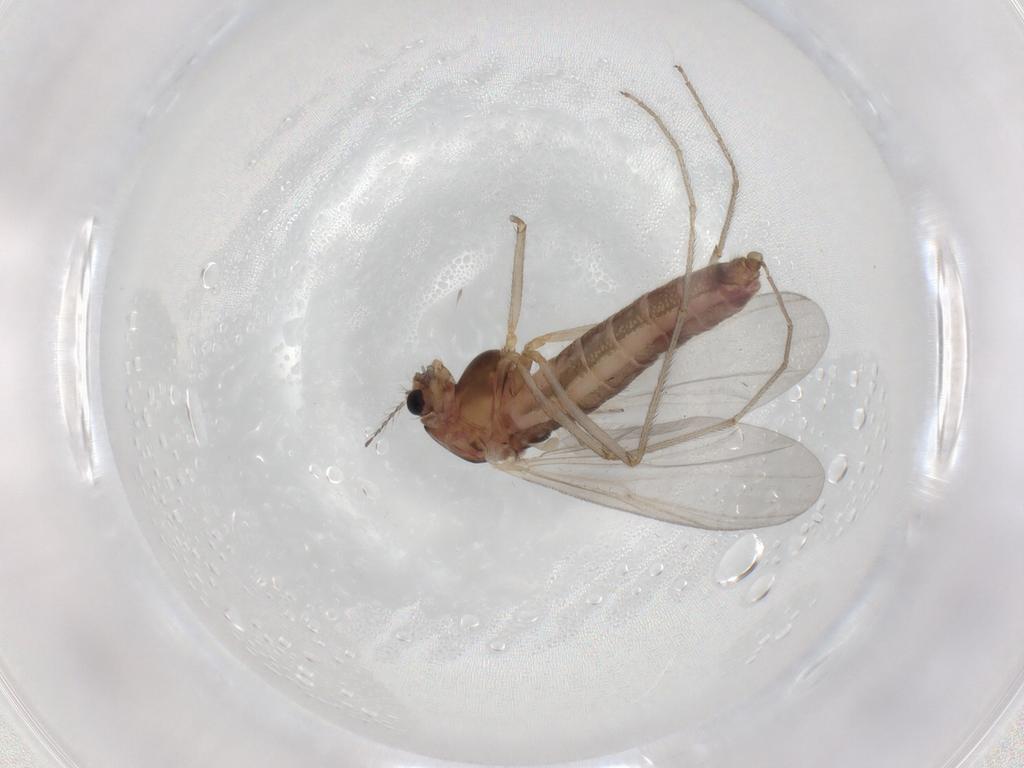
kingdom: Animalia
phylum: Arthropoda
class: Insecta
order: Diptera
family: Chironomidae
